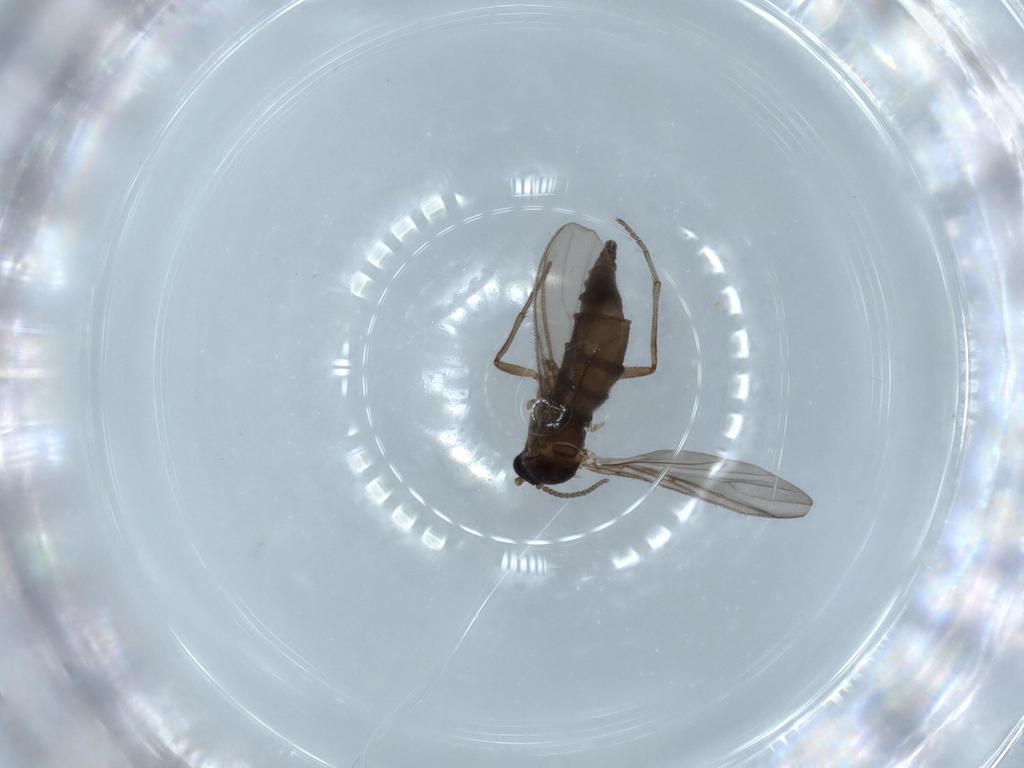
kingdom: Animalia
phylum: Arthropoda
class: Insecta
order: Diptera
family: Sciaridae
